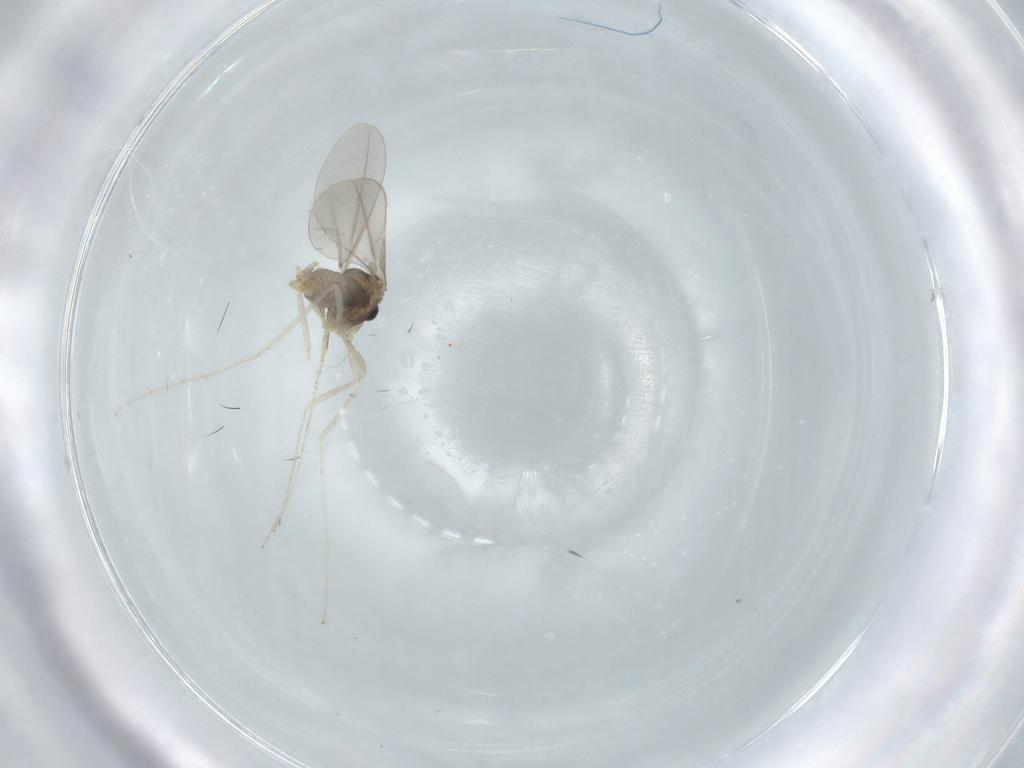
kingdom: Animalia
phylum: Arthropoda
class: Insecta
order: Diptera
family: Cecidomyiidae
